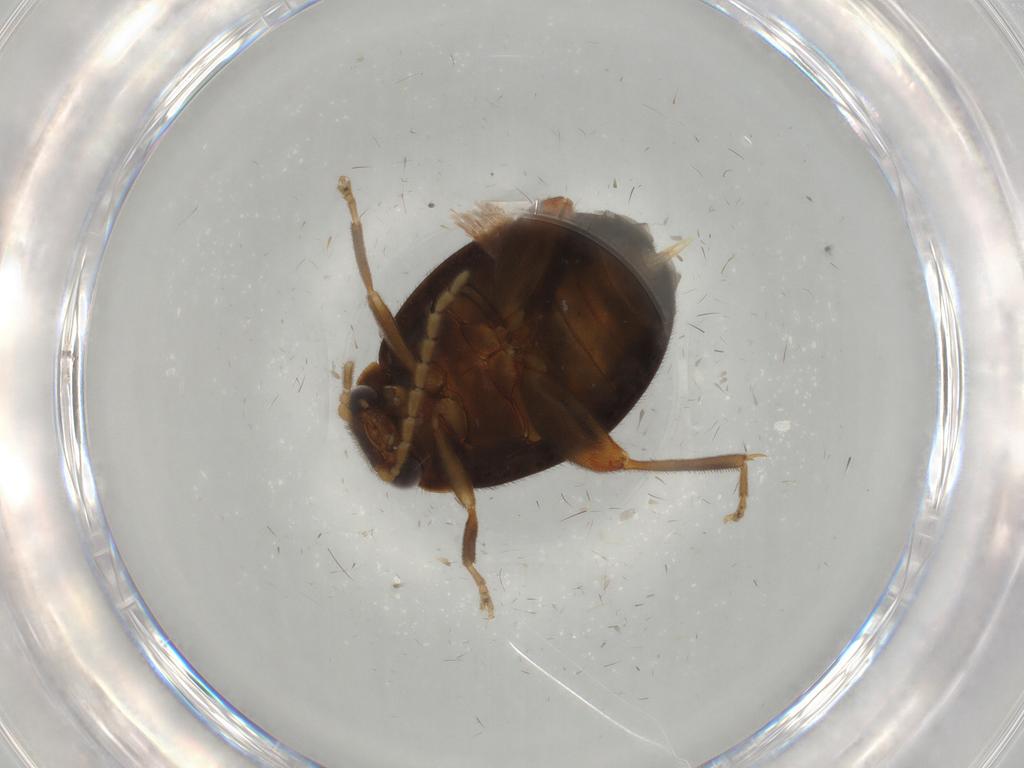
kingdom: Animalia
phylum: Arthropoda
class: Insecta
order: Coleoptera
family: Scirtidae
